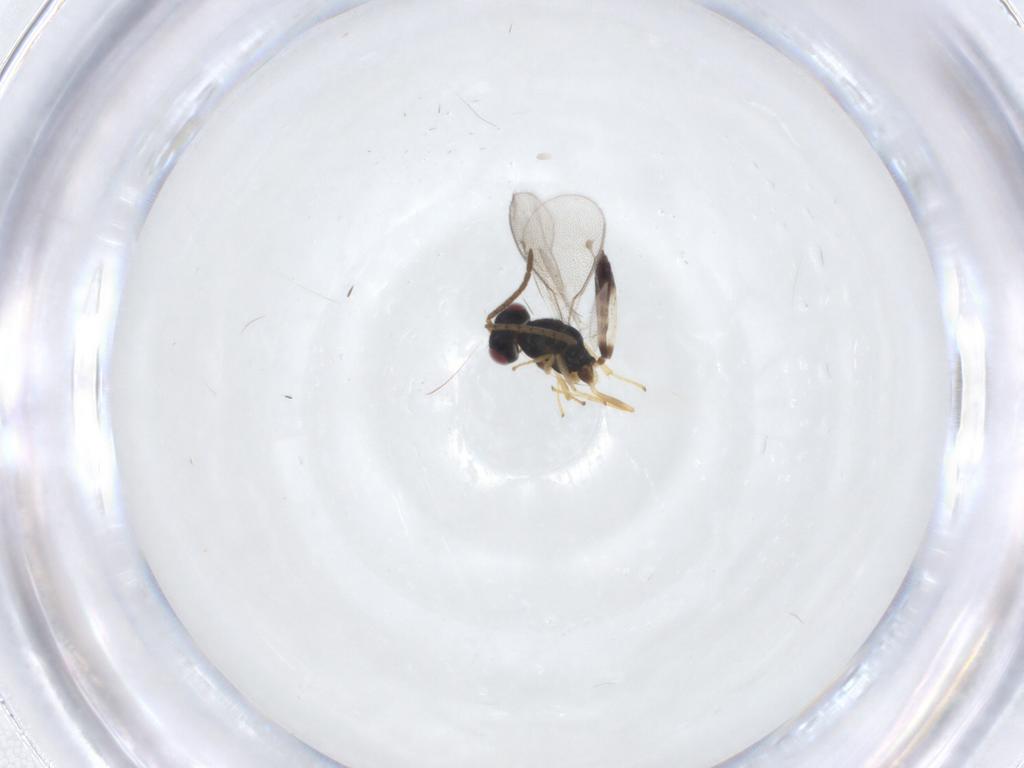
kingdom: Animalia
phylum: Arthropoda
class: Insecta
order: Hymenoptera
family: Pteromalidae
